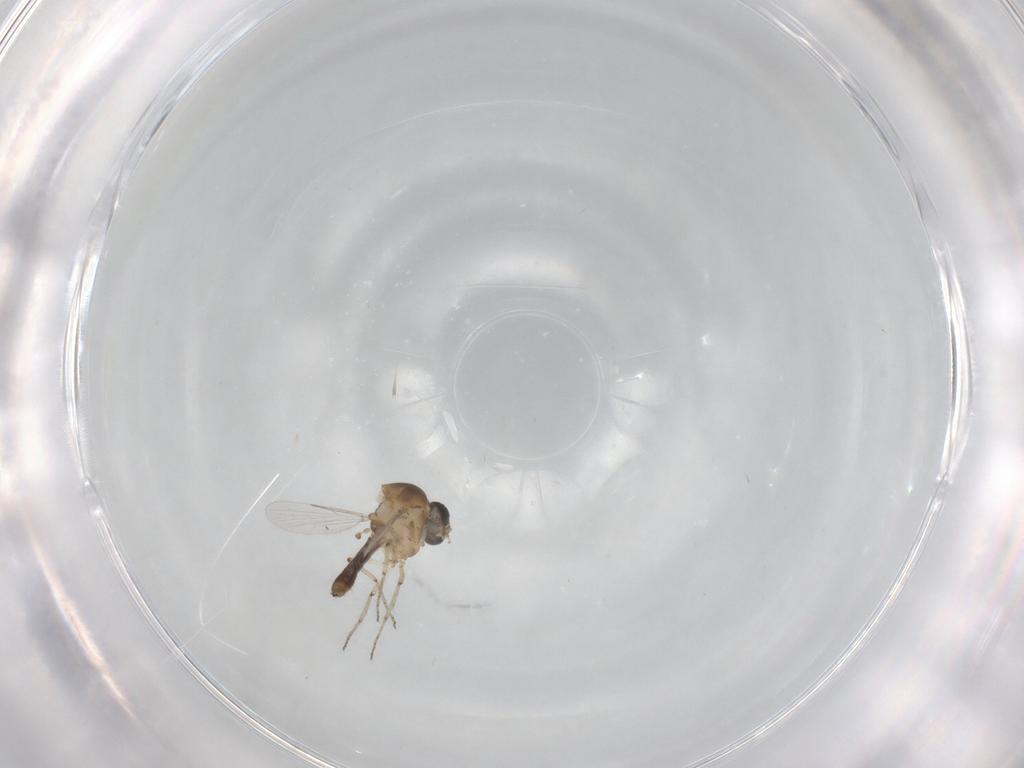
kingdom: Animalia
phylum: Arthropoda
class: Insecta
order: Diptera
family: Ceratopogonidae
